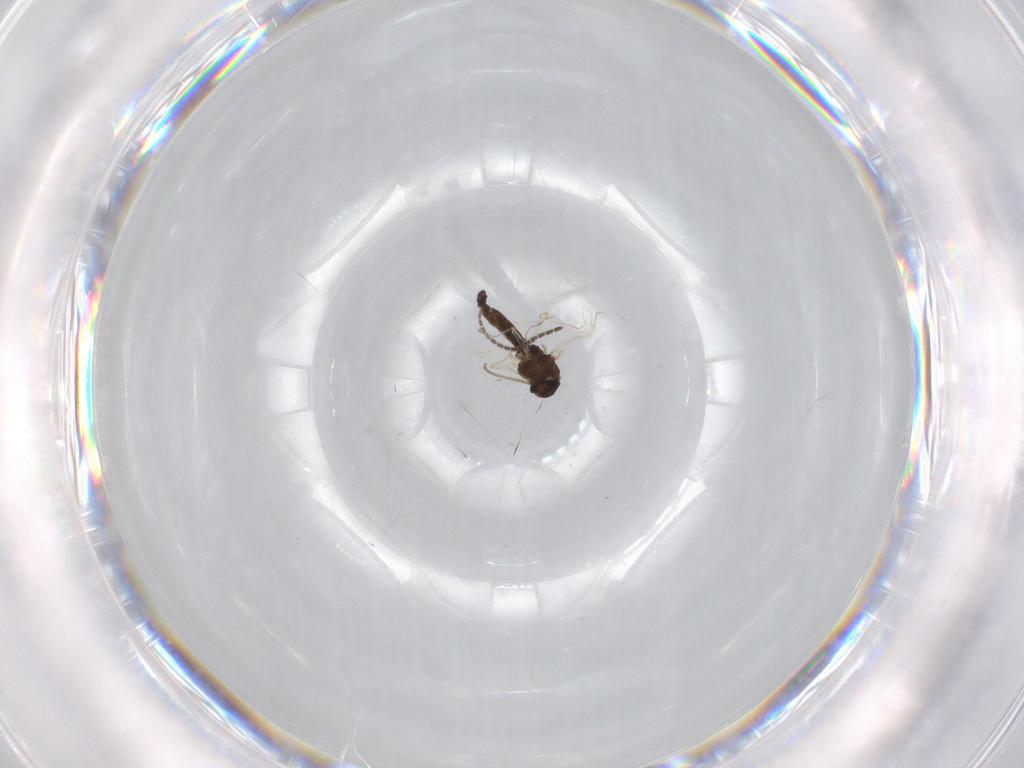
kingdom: Animalia
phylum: Arthropoda
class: Insecta
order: Diptera
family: Chironomidae
